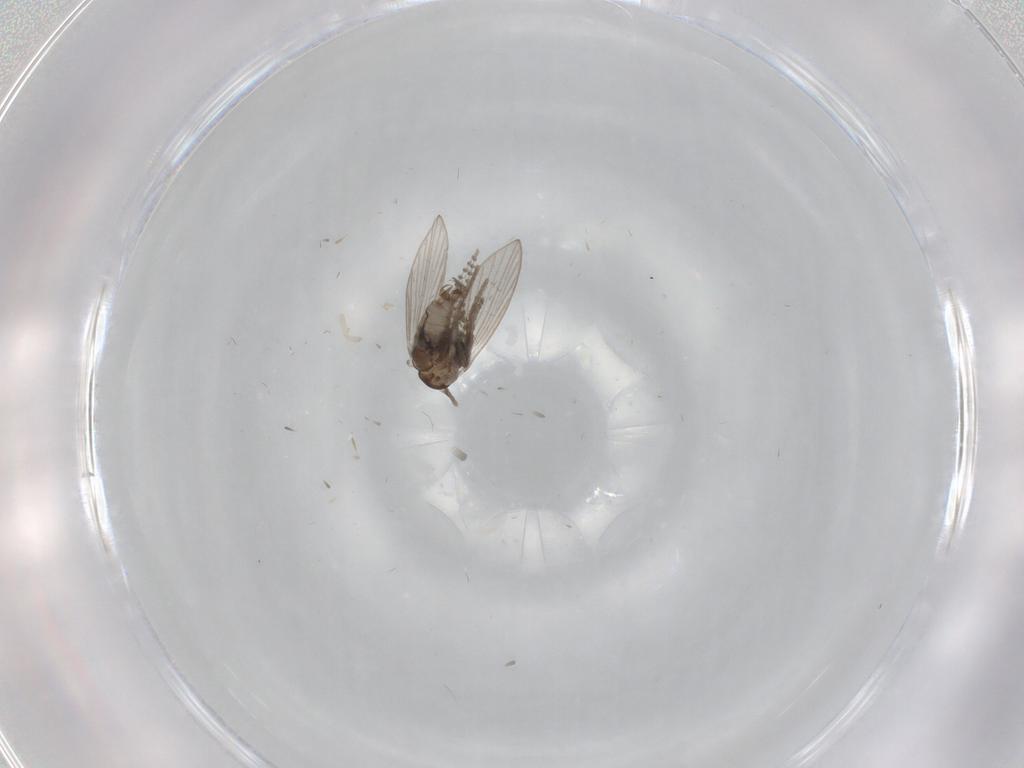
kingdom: Animalia
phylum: Arthropoda
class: Insecta
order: Diptera
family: Psychodidae
